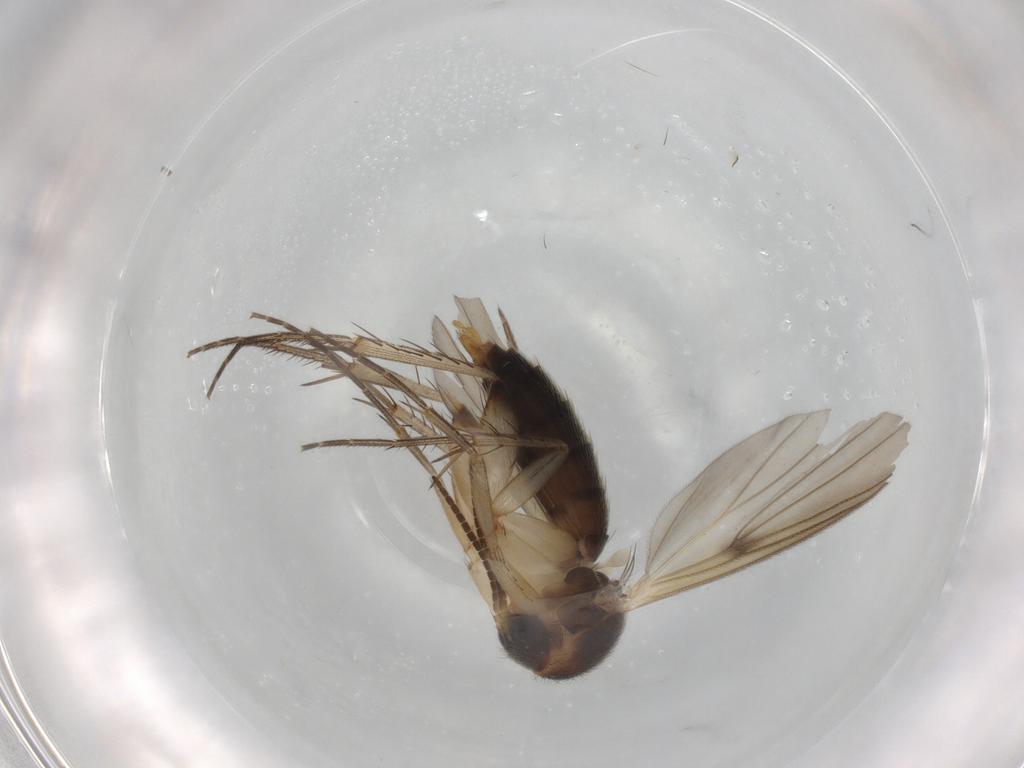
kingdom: Animalia
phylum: Arthropoda
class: Insecta
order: Diptera
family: Mycetophilidae
